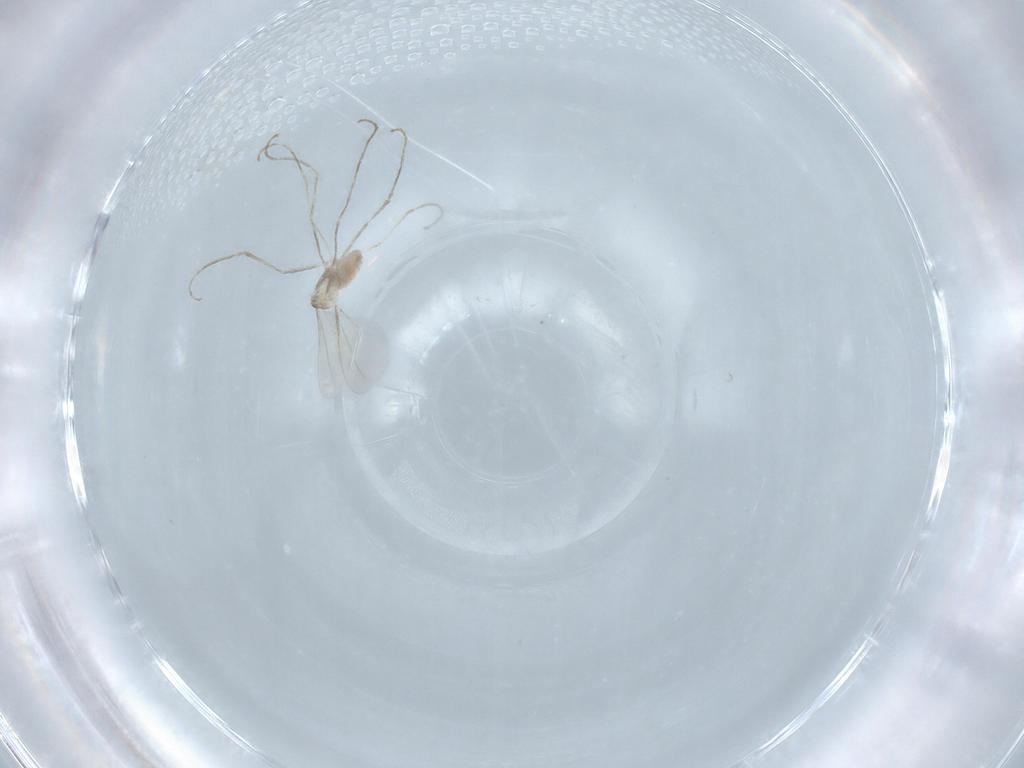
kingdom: Animalia
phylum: Arthropoda
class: Insecta
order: Diptera
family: Cecidomyiidae
